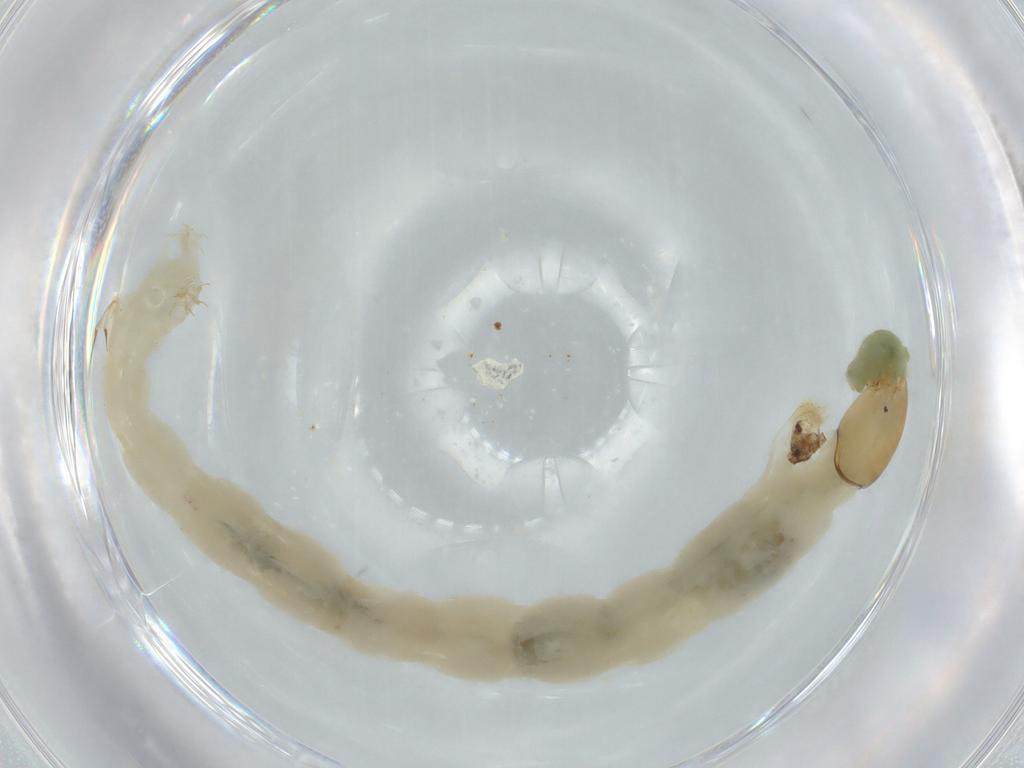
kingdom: Animalia
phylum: Arthropoda
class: Insecta
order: Diptera
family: Chironomidae
